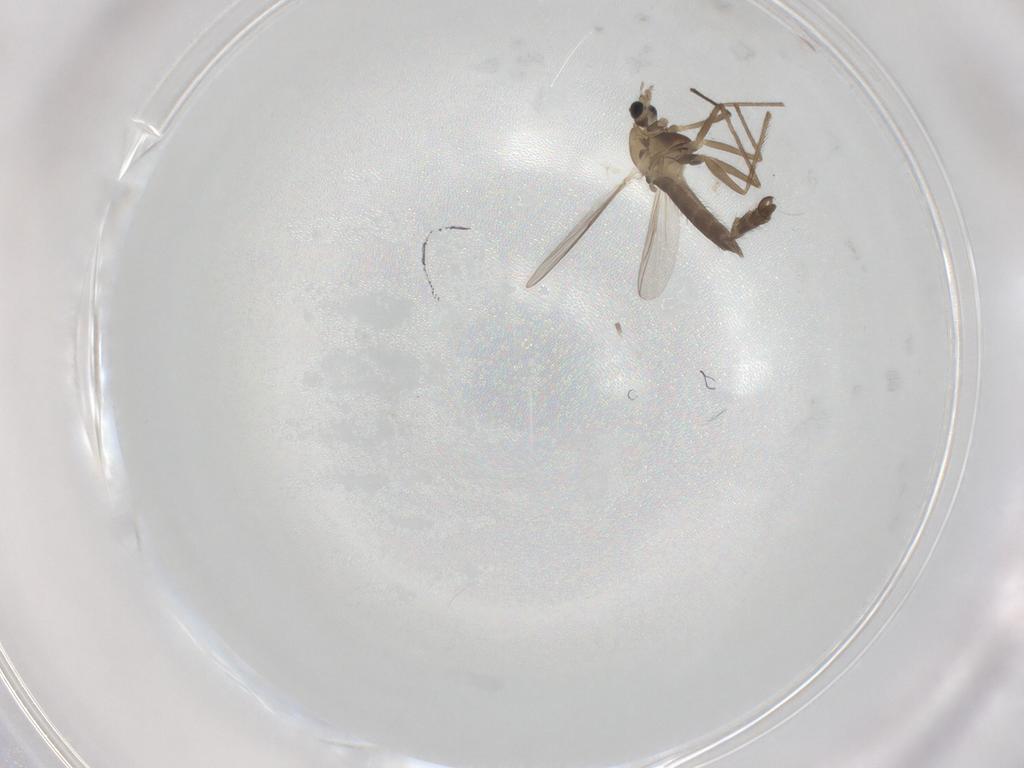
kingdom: Animalia
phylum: Arthropoda
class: Insecta
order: Diptera
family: Chironomidae
